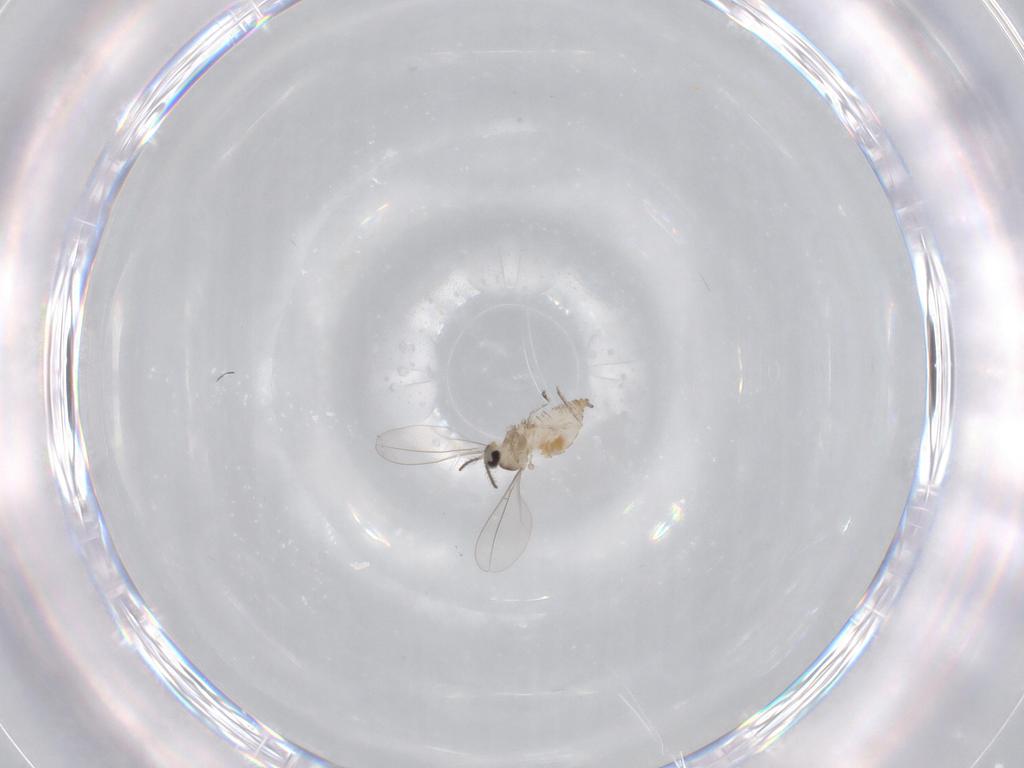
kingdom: Animalia
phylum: Arthropoda
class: Insecta
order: Diptera
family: Cecidomyiidae
